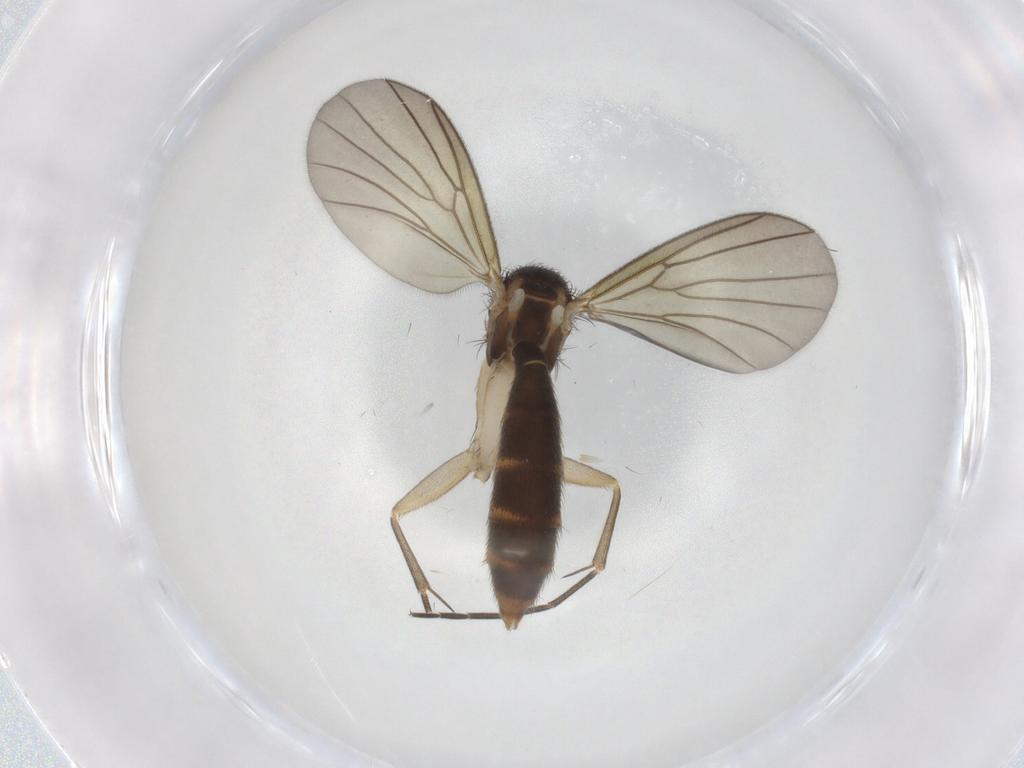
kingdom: Animalia
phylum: Arthropoda
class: Insecta
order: Diptera
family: Mycetophilidae
